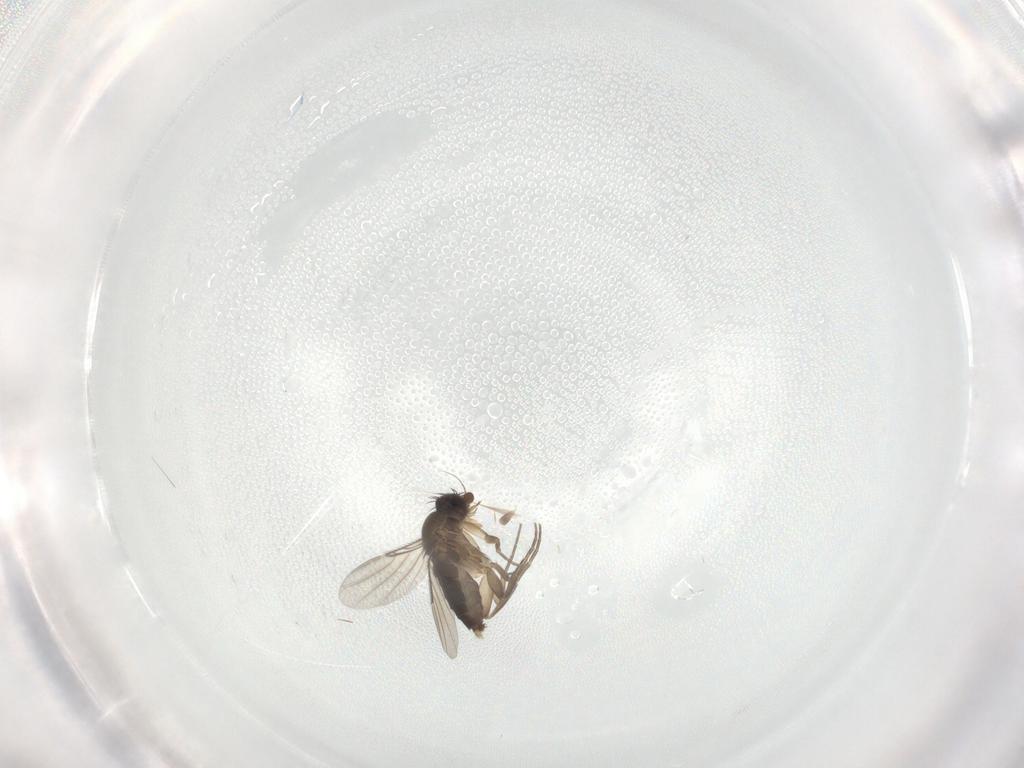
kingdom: Animalia
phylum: Arthropoda
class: Insecta
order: Diptera
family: Phoridae
